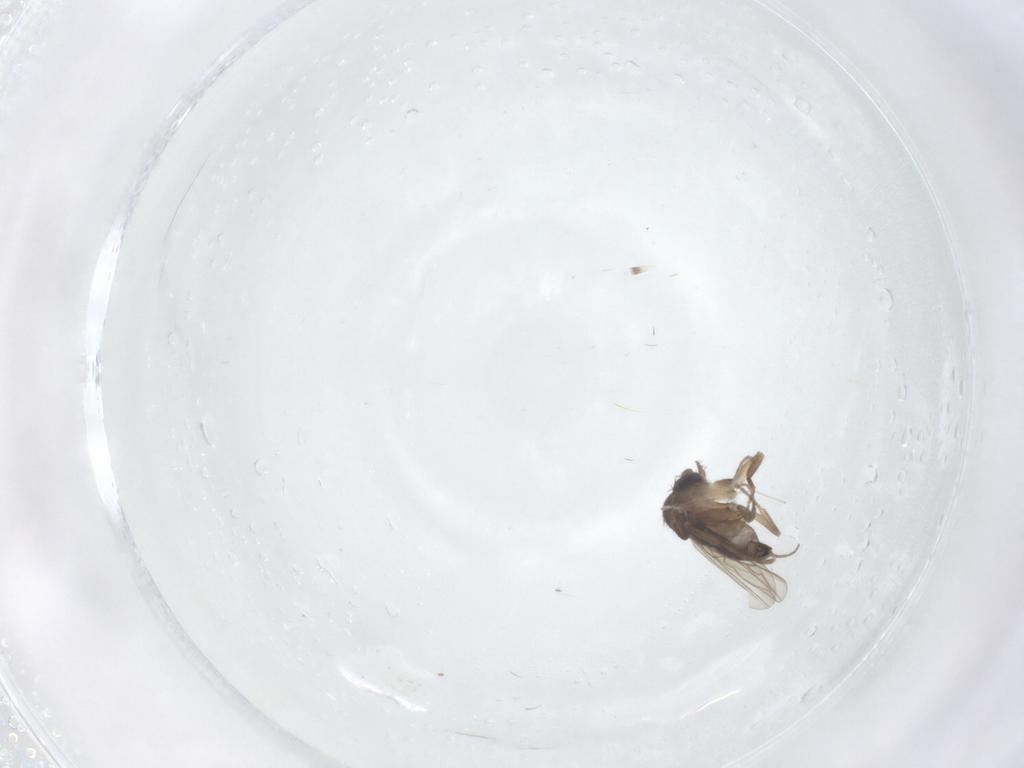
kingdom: Animalia
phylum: Arthropoda
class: Insecta
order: Diptera
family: Phoridae
